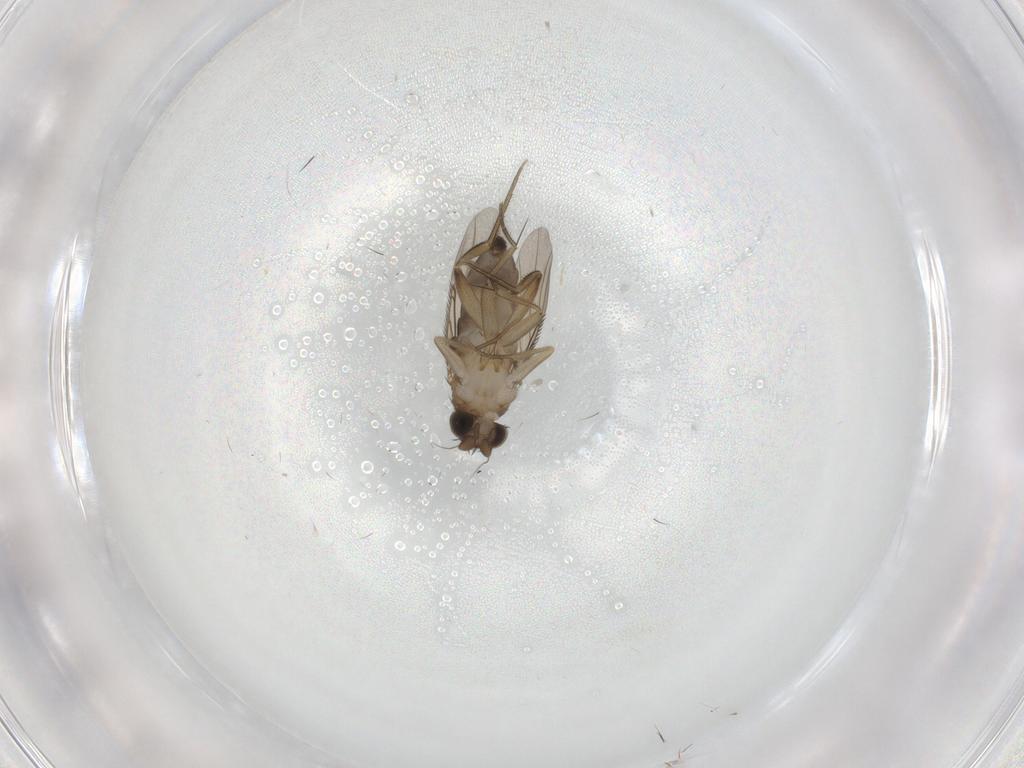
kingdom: Animalia
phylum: Arthropoda
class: Insecta
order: Diptera
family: Phoridae
